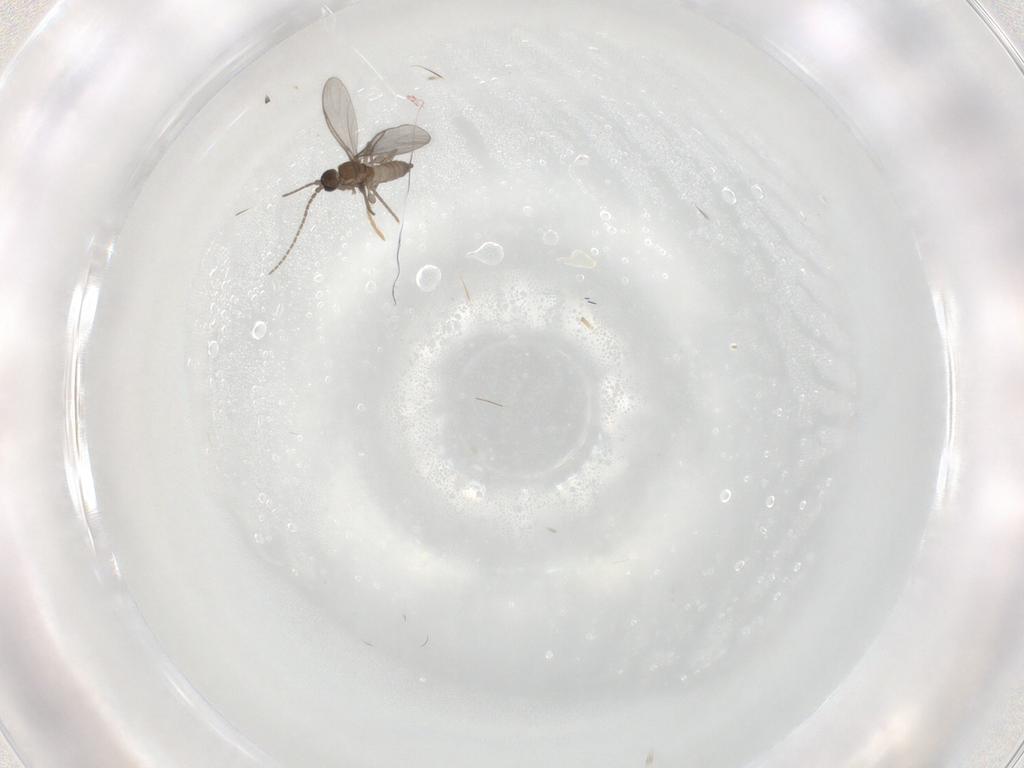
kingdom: Animalia
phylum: Arthropoda
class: Insecta
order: Diptera
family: Sciaridae
